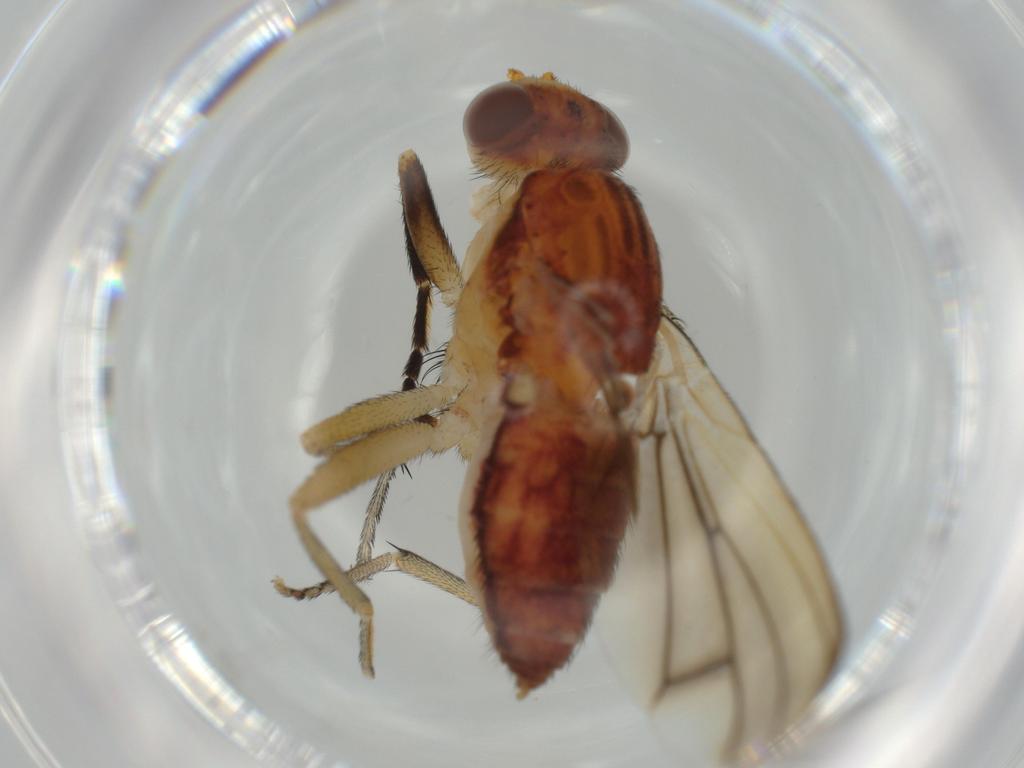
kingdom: Animalia
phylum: Arthropoda
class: Insecta
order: Diptera
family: Sciaridae
